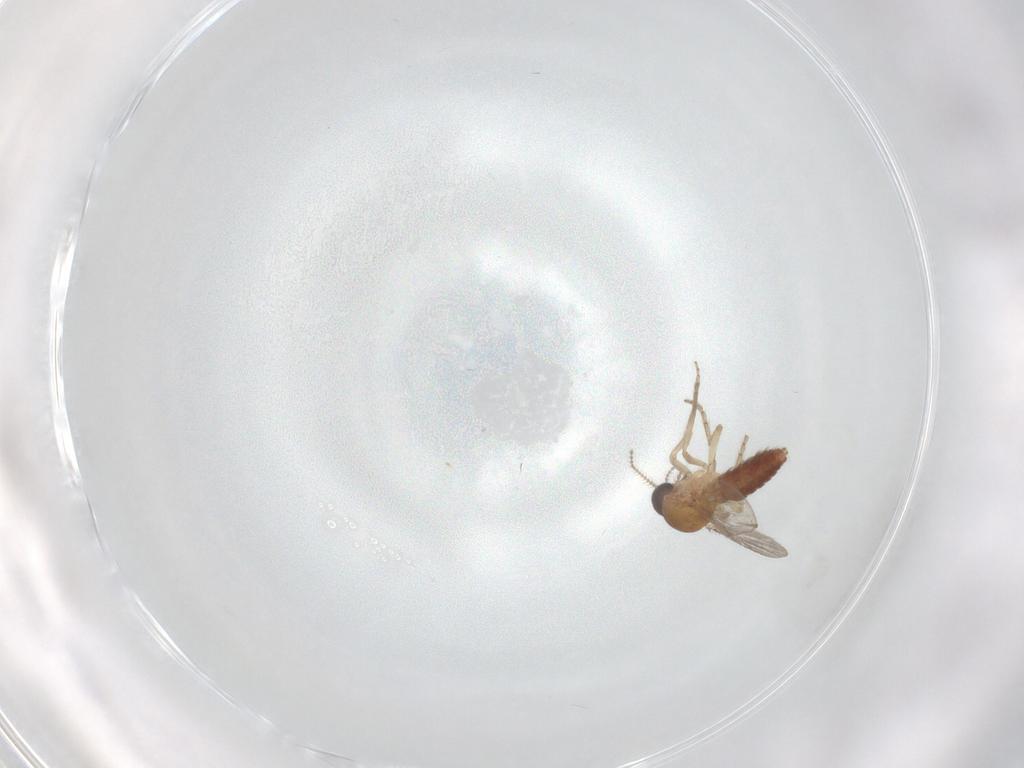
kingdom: Animalia
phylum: Arthropoda
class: Insecta
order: Diptera
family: Ceratopogonidae
